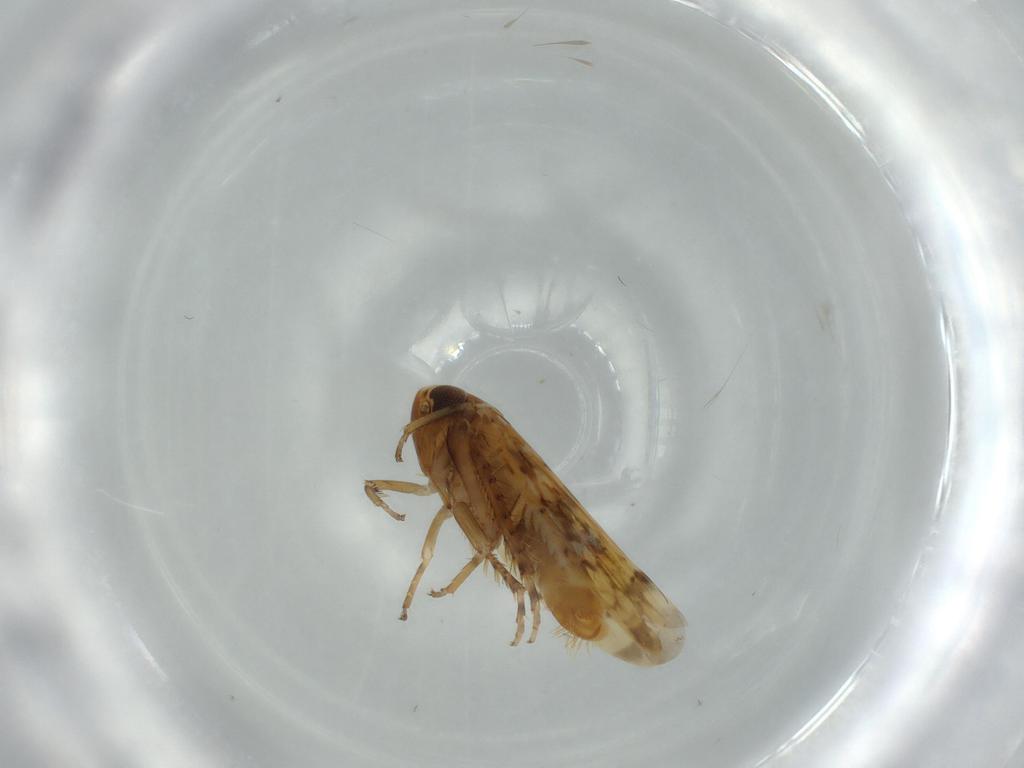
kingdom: Animalia
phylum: Arthropoda
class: Insecta
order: Hemiptera
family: Cicadellidae
